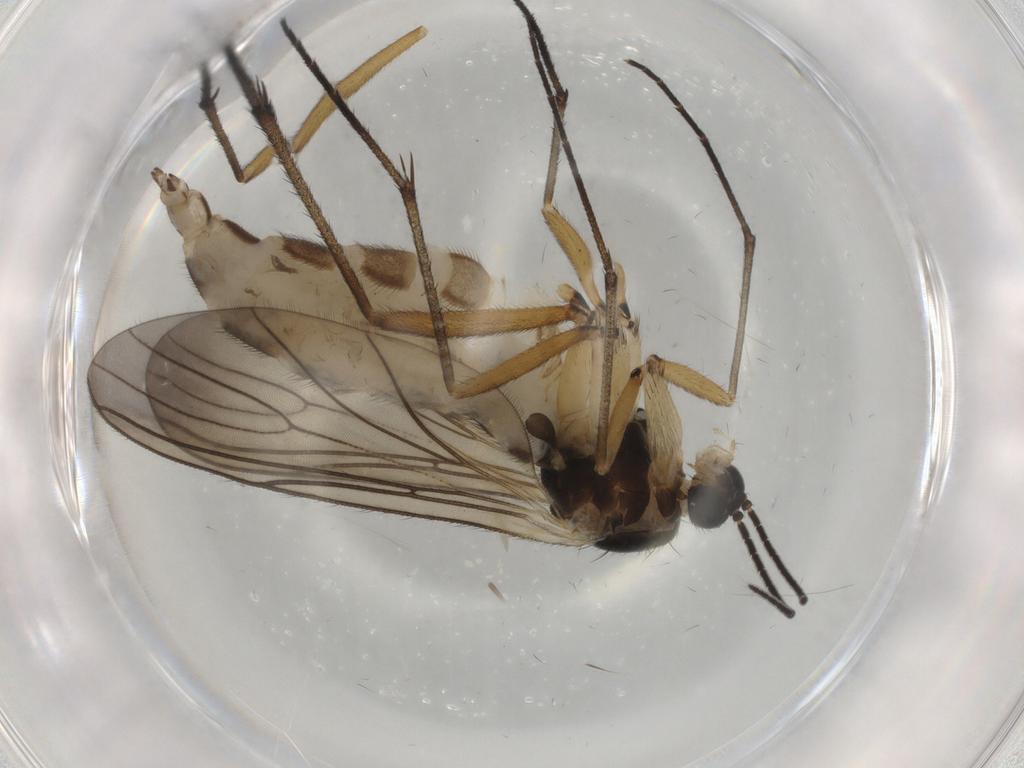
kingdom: Animalia
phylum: Arthropoda
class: Insecta
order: Diptera
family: Sciaridae
